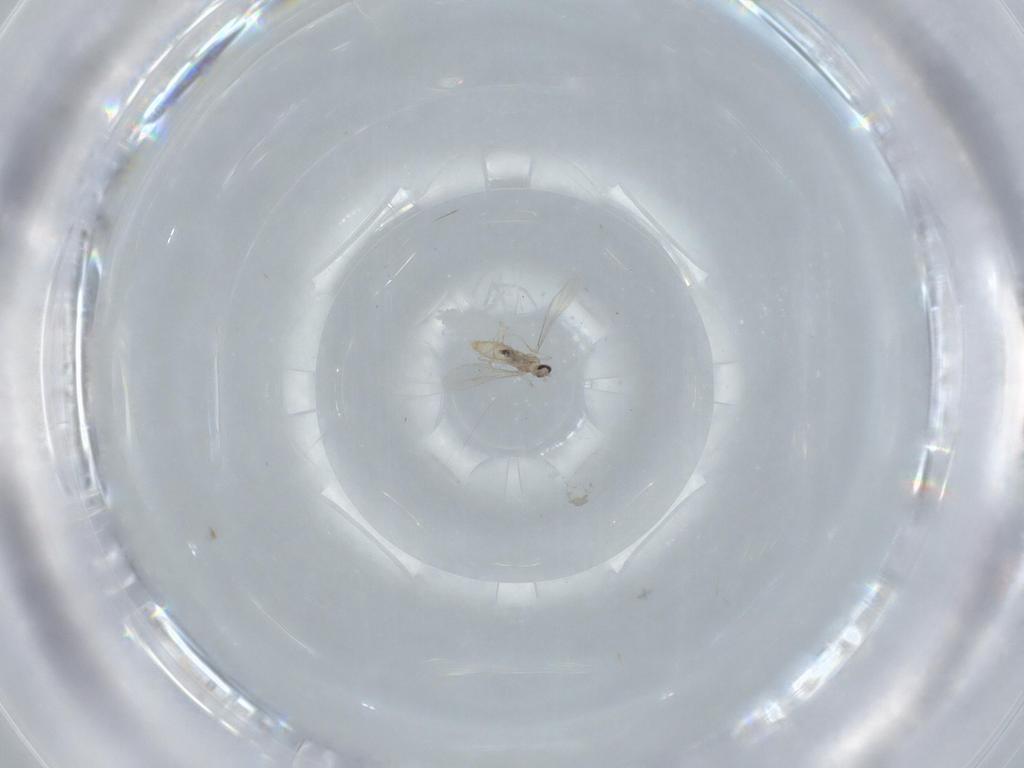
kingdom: Animalia
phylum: Arthropoda
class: Insecta
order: Diptera
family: Cecidomyiidae
